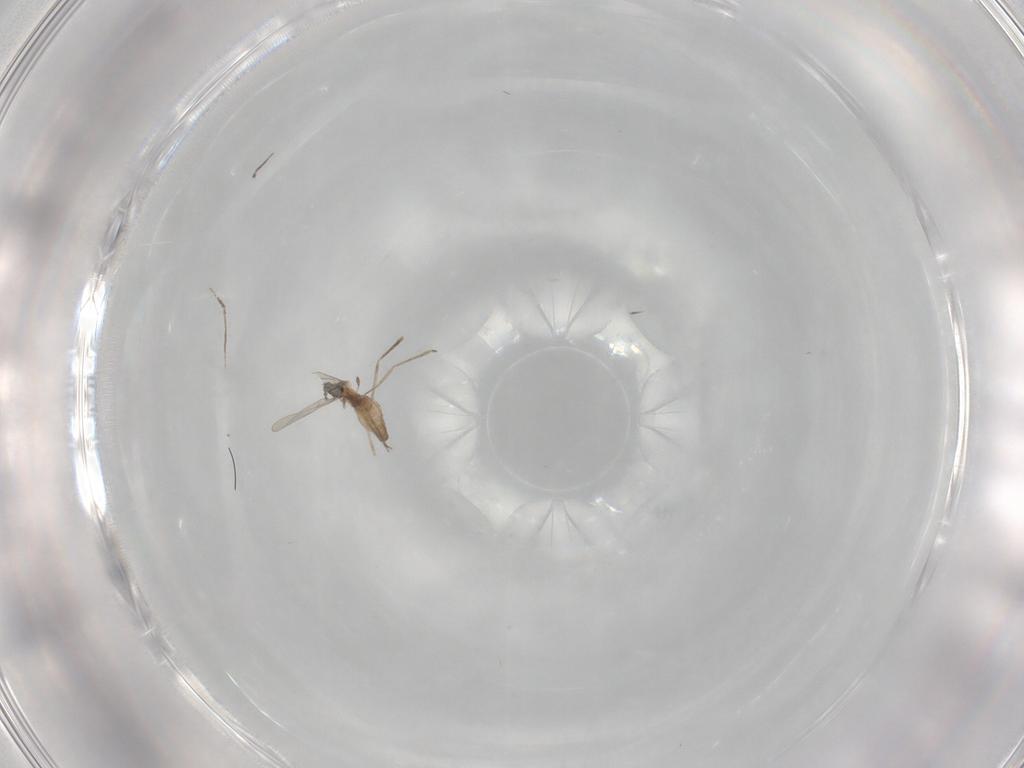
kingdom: Animalia
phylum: Arthropoda
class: Insecta
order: Diptera
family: Cecidomyiidae
